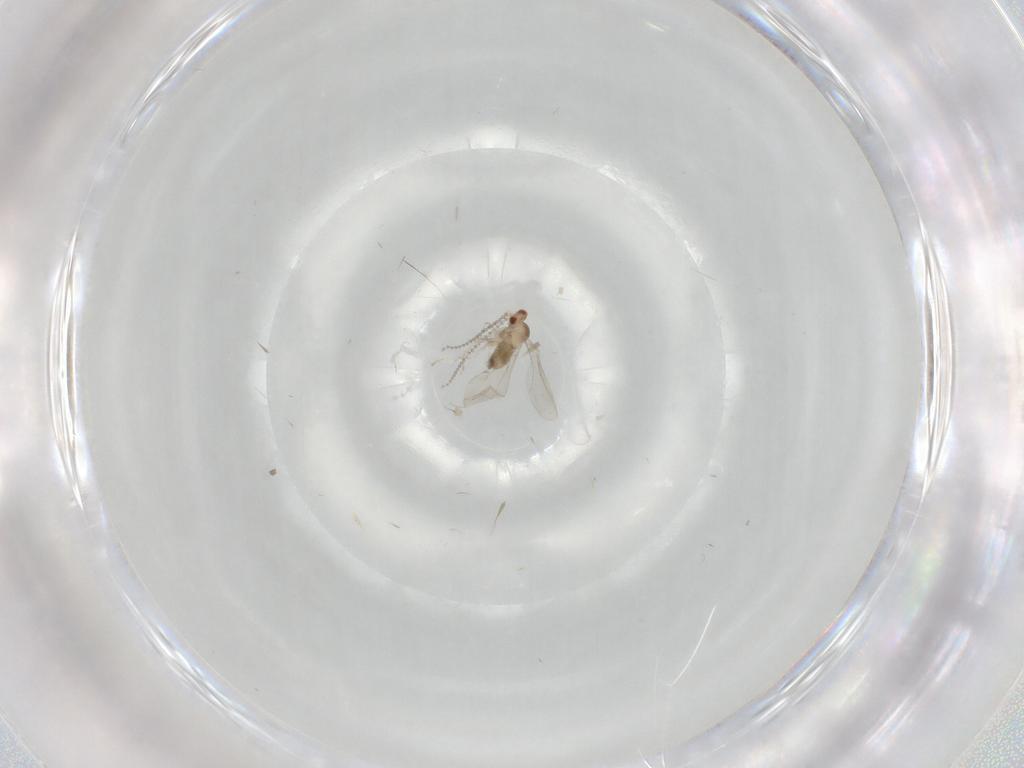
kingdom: Animalia
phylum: Arthropoda
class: Insecta
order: Diptera
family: Cecidomyiidae
